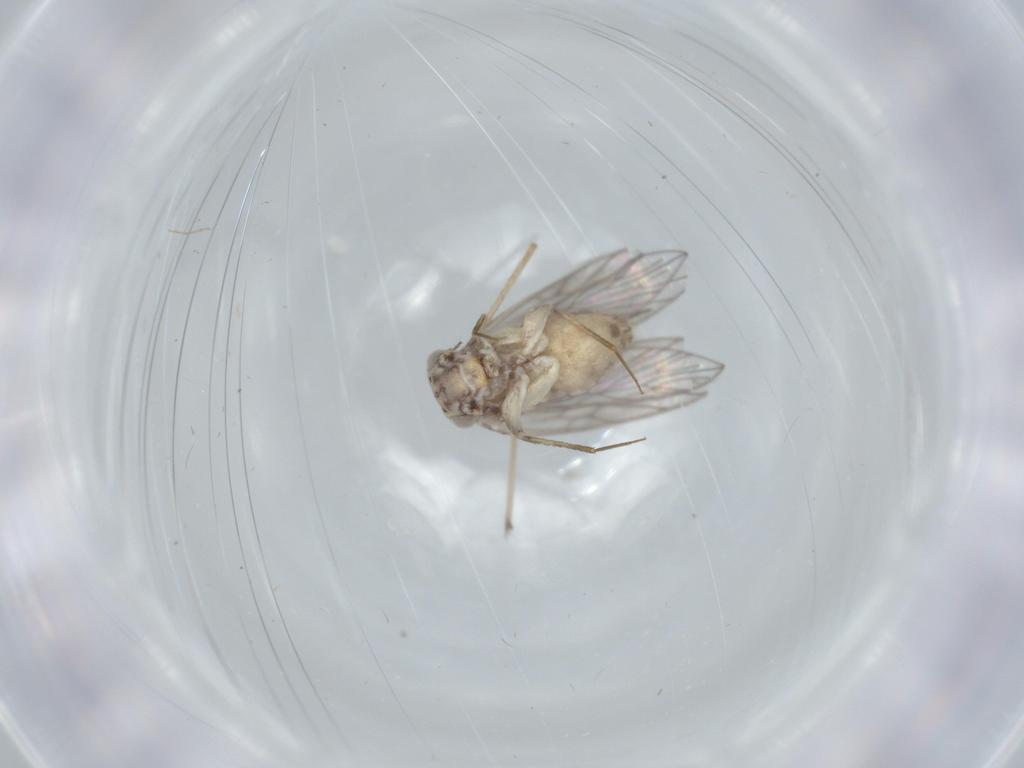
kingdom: Animalia
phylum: Arthropoda
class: Insecta
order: Psocodea
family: Lepidopsocidae
